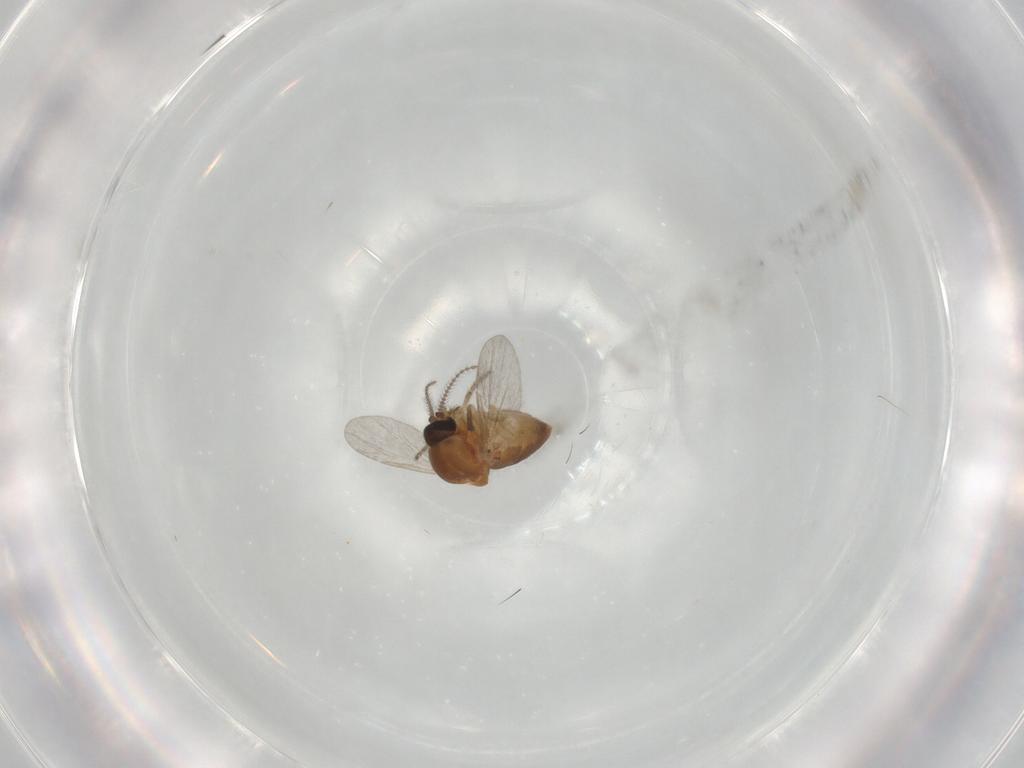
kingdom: Animalia
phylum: Arthropoda
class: Insecta
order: Diptera
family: Ceratopogonidae
